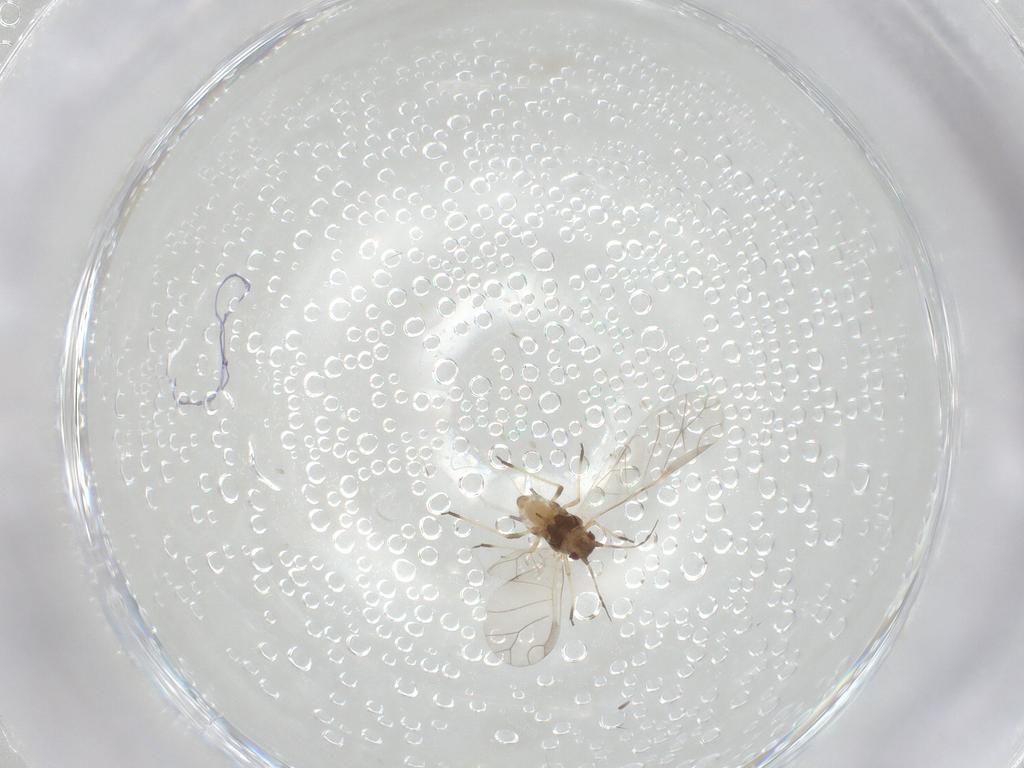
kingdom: Animalia
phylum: Arthropoda
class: Insecta
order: Hemiptera
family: Aphididae
